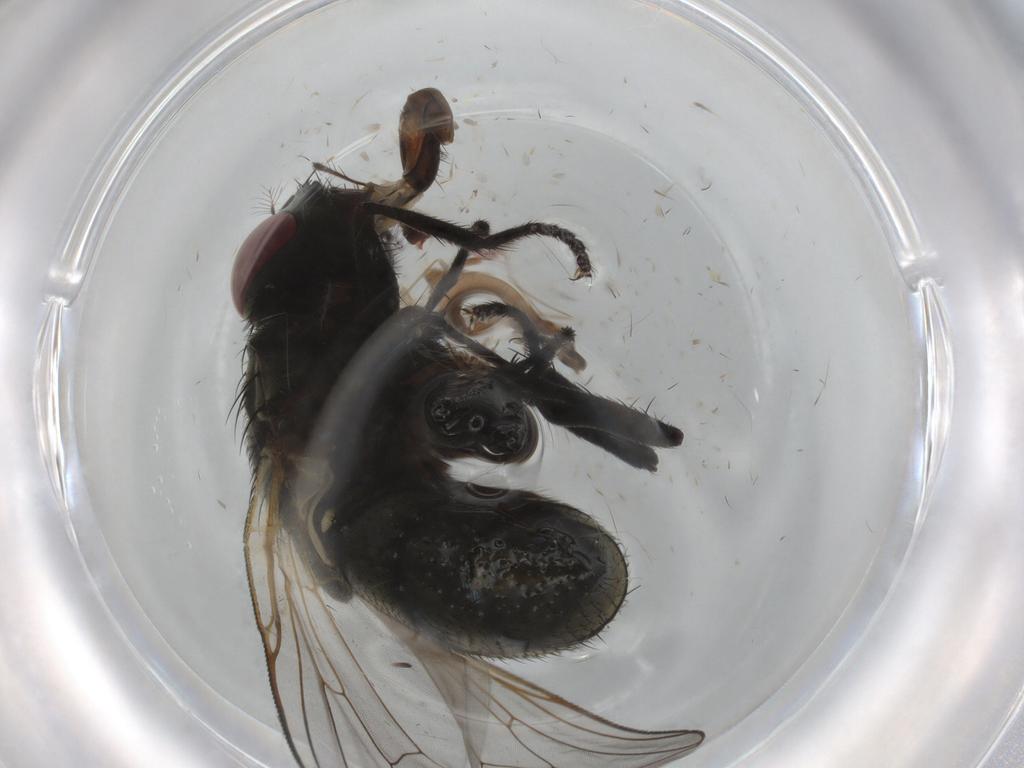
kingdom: Animalia
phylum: Arthropoda
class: Insecta
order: Diptera
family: Muscidae
